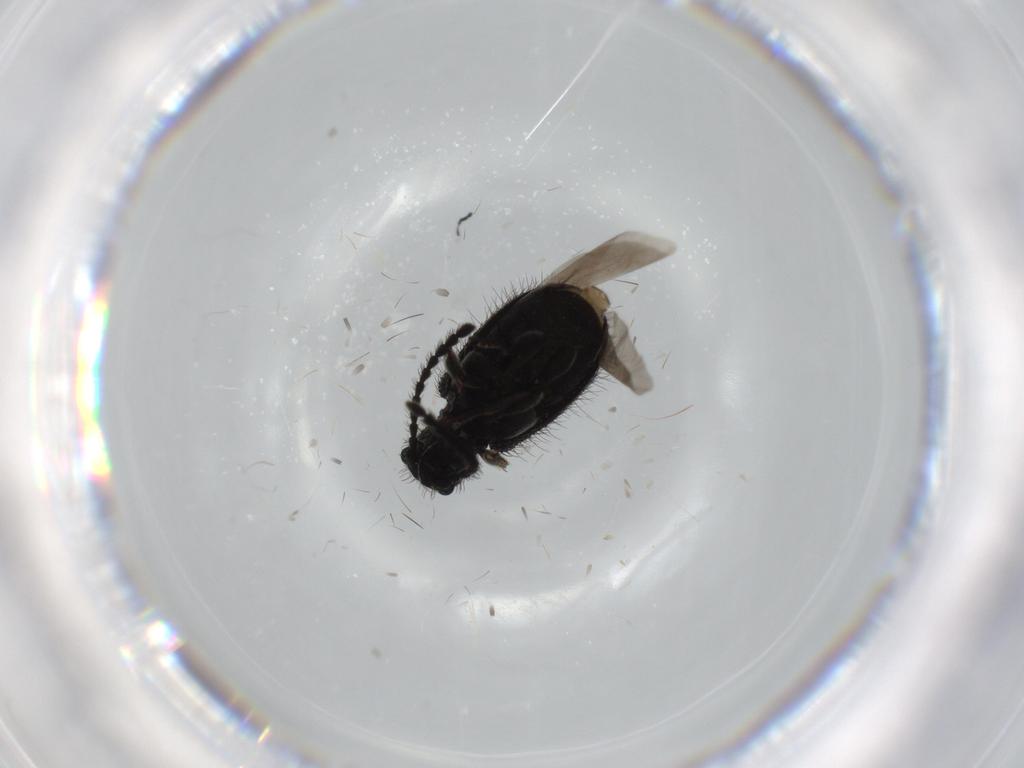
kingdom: Animalia
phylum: Arthropoda
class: Insecta
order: Coleoptera
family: Ptinidae
